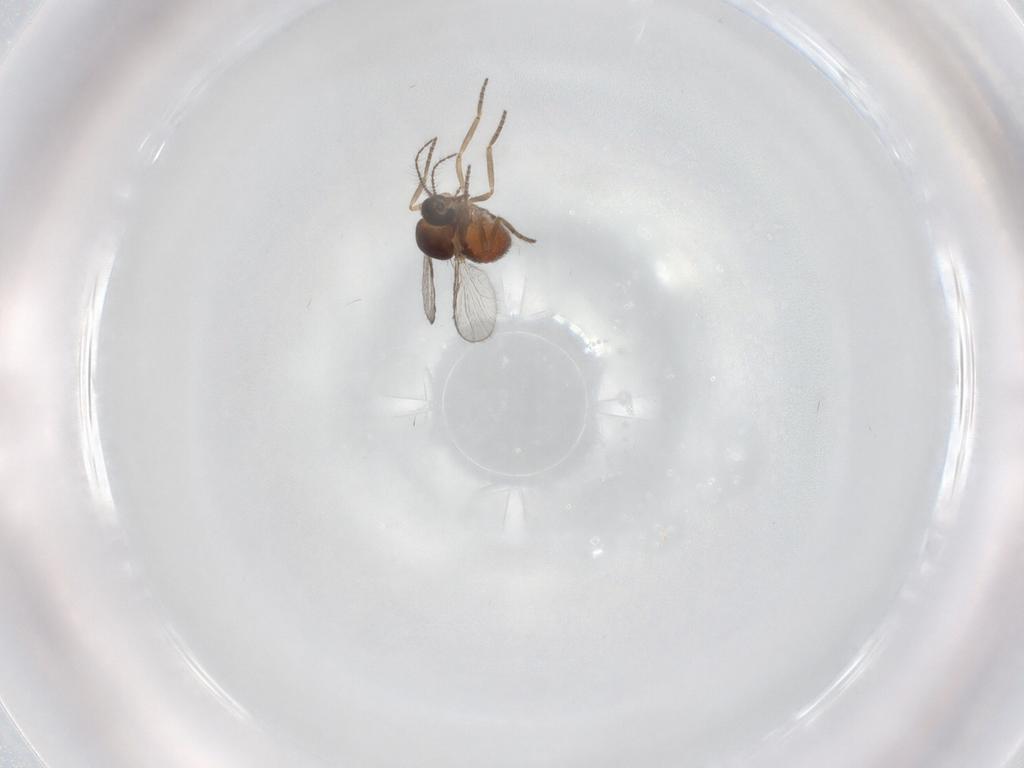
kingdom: Animalia
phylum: Arthropoda
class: Insecta
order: Diptera
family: Ceratopogonidae
